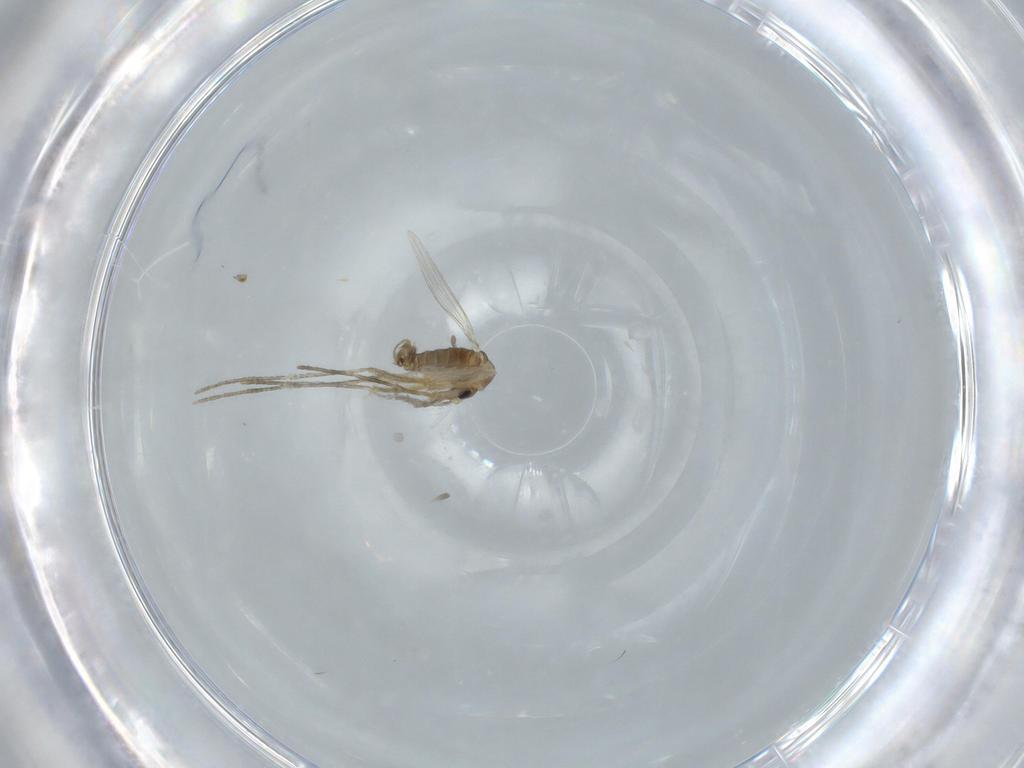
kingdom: Animalia
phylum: Arthropoda
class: Insecta
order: Diptera
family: Psychodidae
